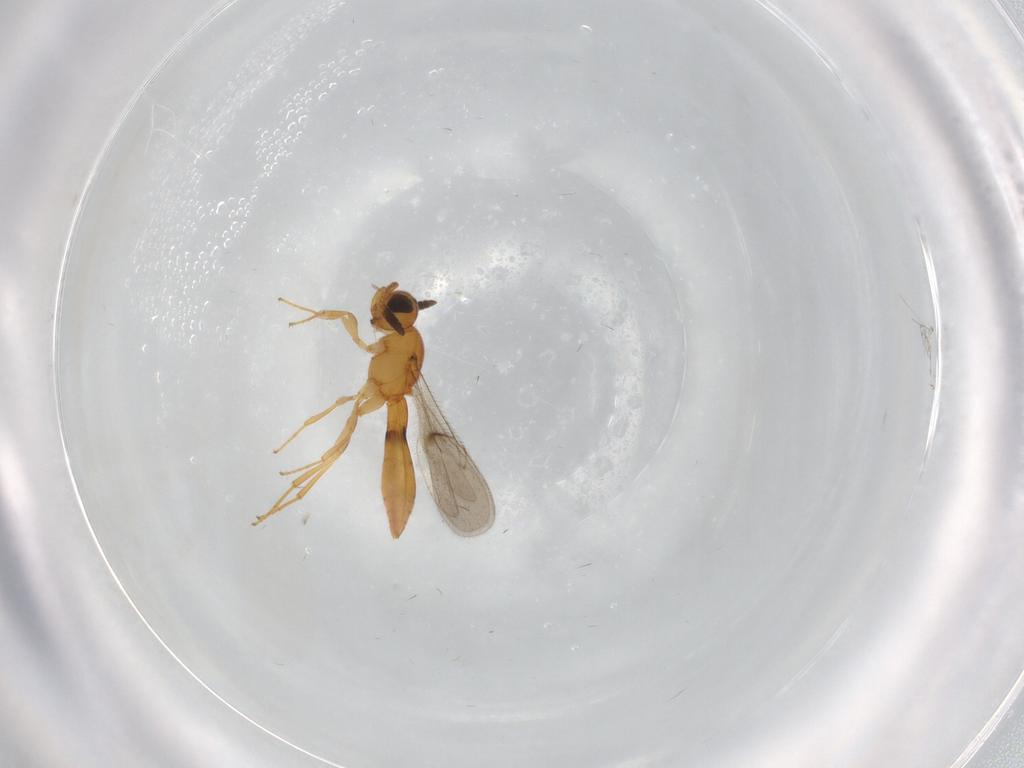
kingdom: Animalia
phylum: Arthropoda
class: Insecta
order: Hymenoptera
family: Scelionidae
